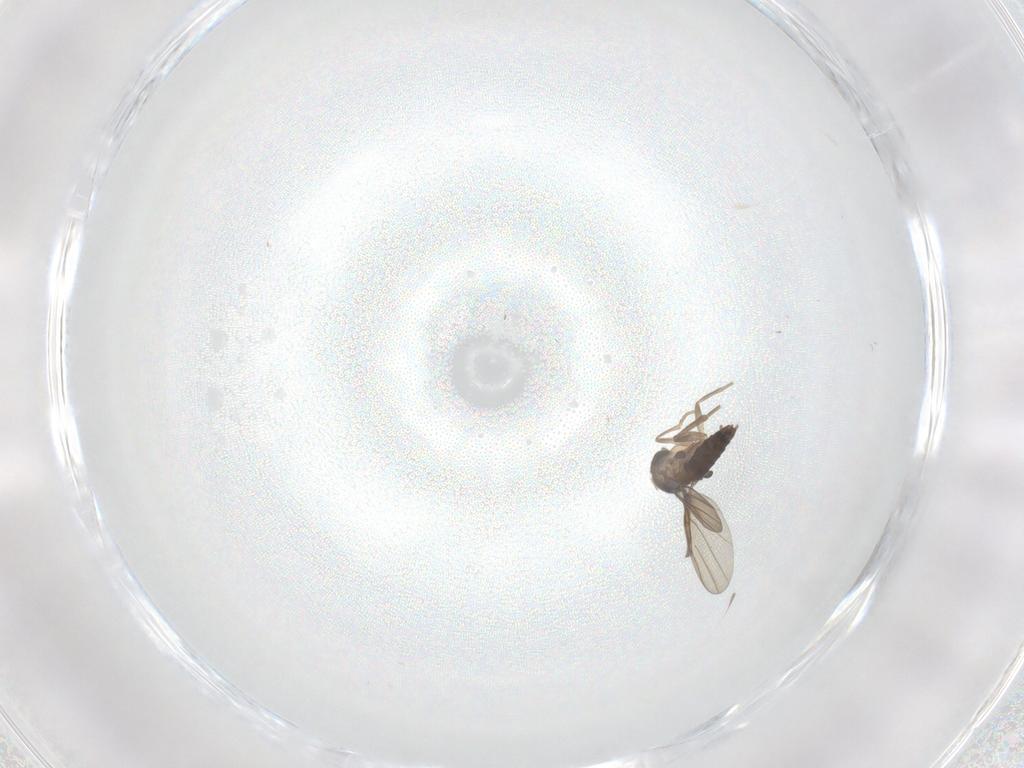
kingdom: Animalia
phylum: Arthropoda
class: Insecta
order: Diptera
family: Phoridae
